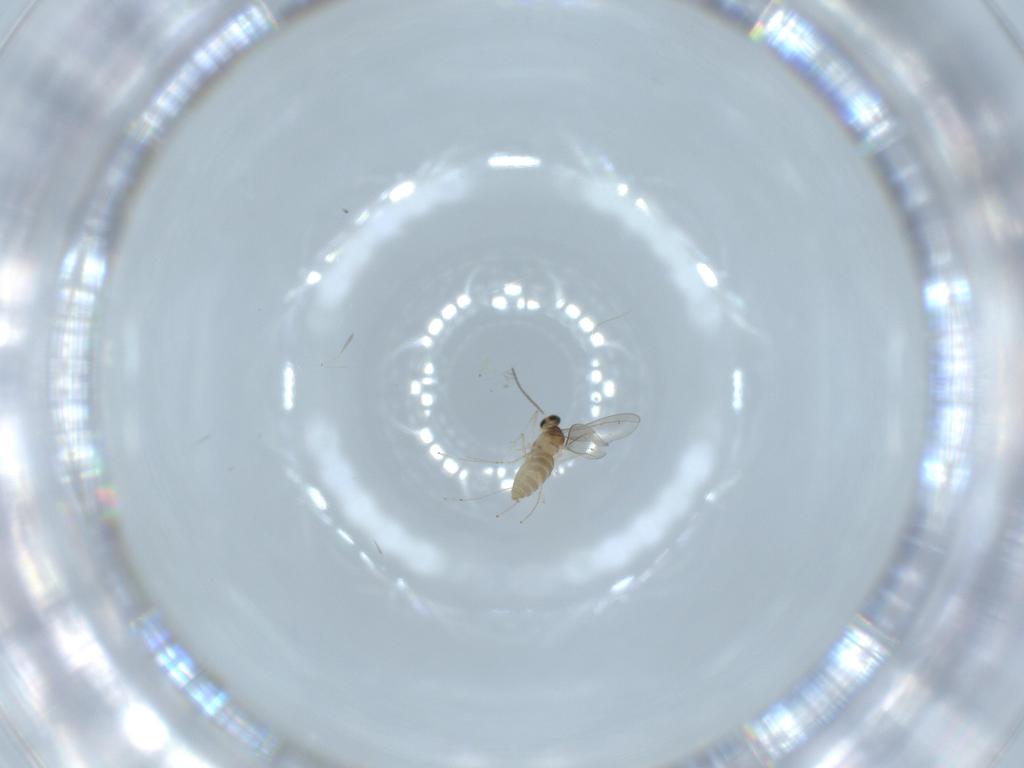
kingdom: Animalia
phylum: Arthropoda
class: Insecta
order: Diptera
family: Cecidomyiidae
